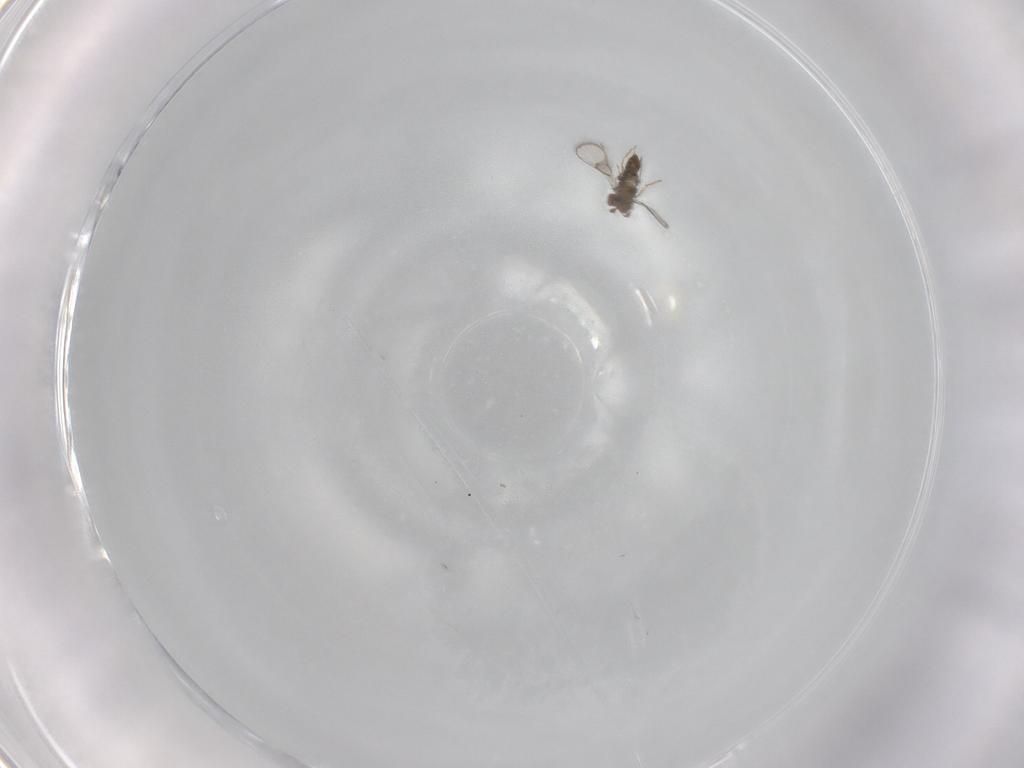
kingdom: Animalia
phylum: Arthropoda
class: Insecta
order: Hymenoptera
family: Trichogrammatidae
